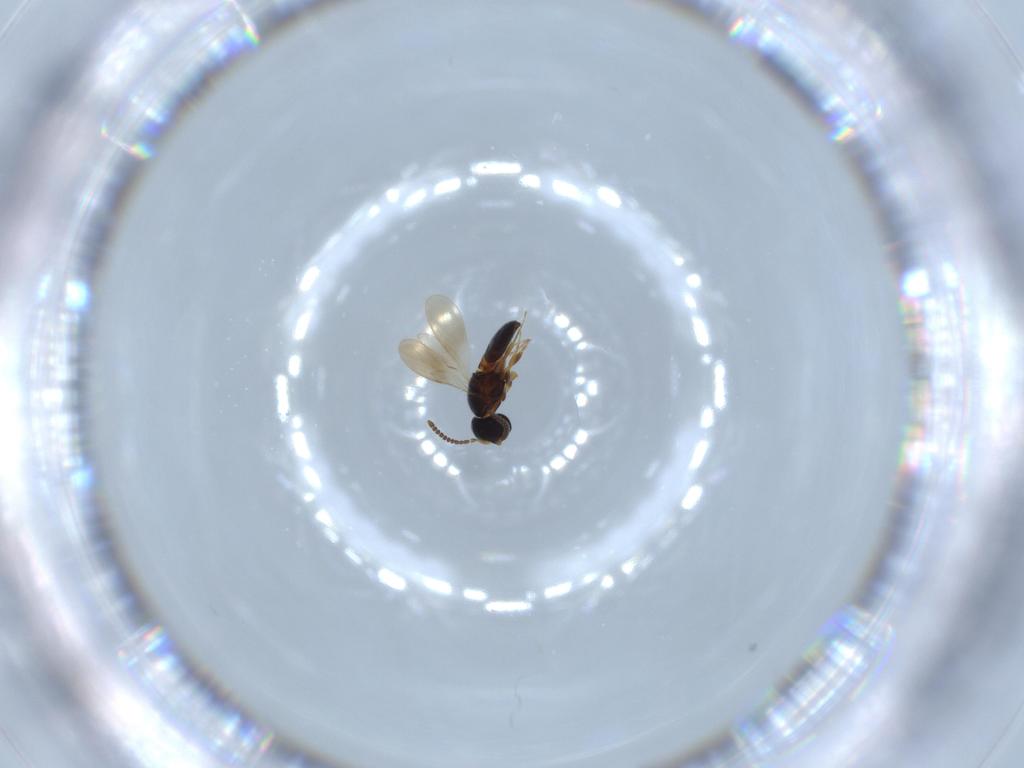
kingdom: Animalia
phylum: Arthropoda
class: Insecta
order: Hymenoptera
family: Scelionidae
